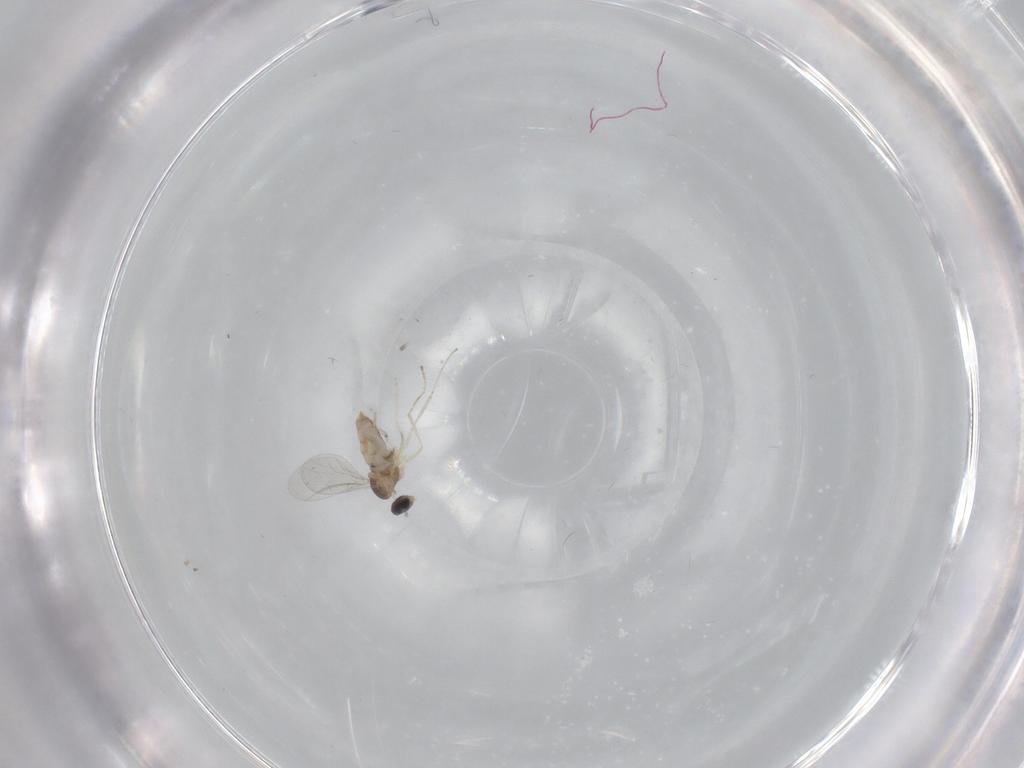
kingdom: Animalia
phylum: Arthropoda
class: Insecta
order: Diptera
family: Cecidomyiidae
